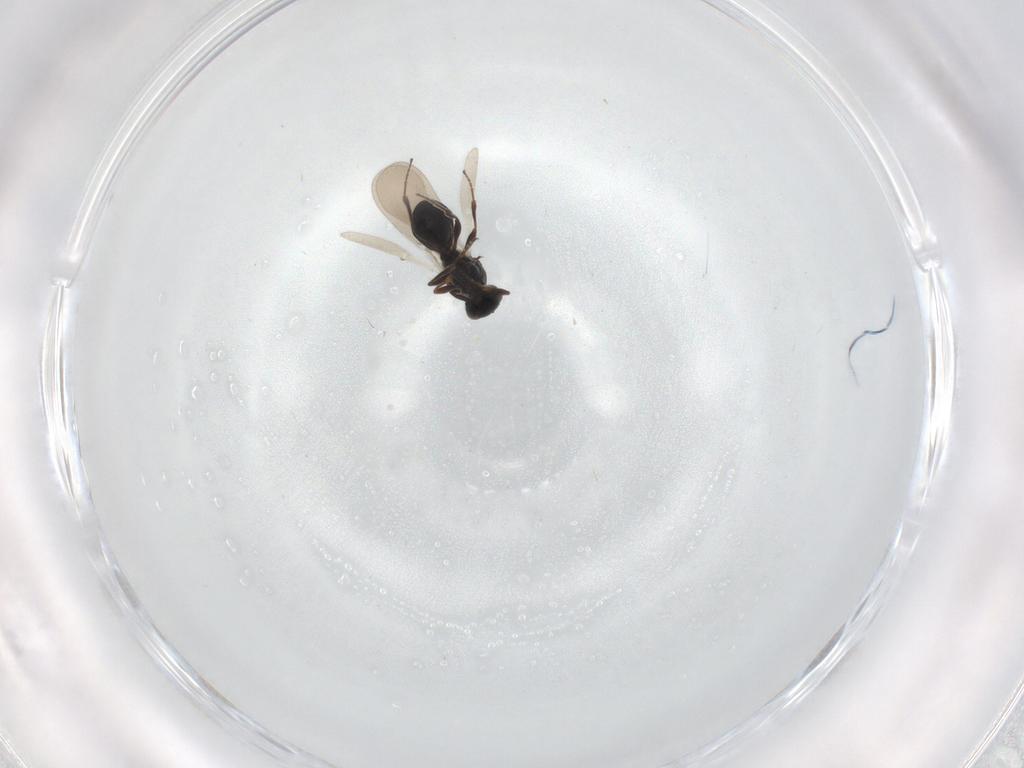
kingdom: Animalia
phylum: Arthropoda
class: Insecta
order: Hymenoptera
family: Platygastridae
